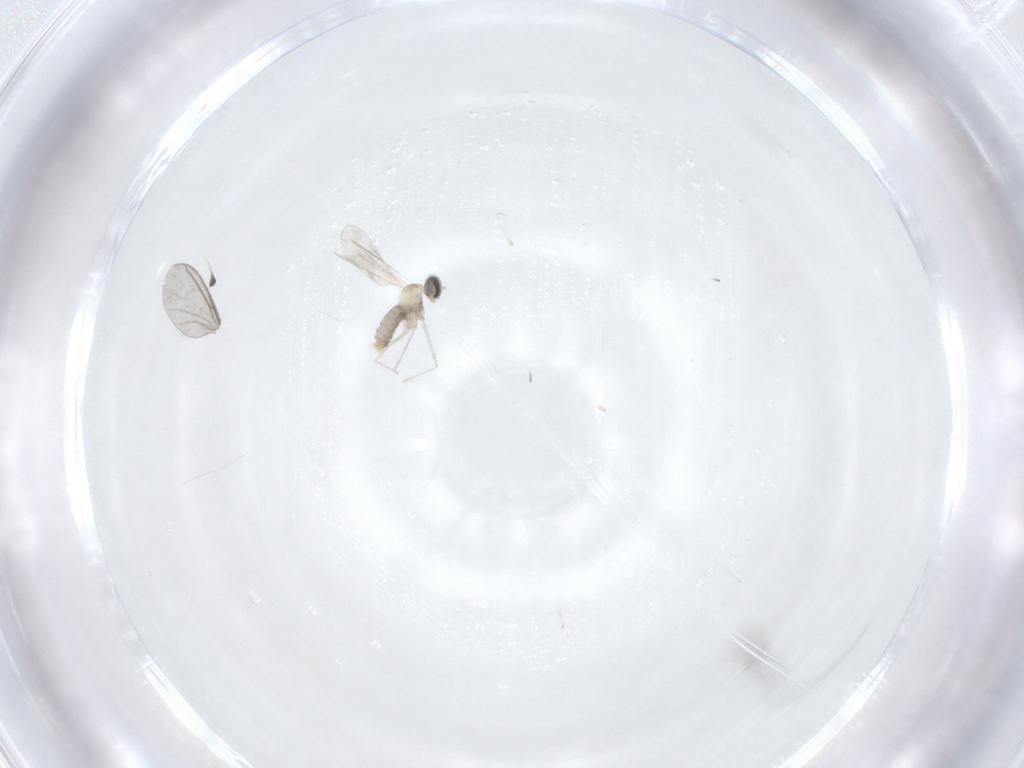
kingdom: Animalia
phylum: Arthropoda
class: Insecta
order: Diptera
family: Sciaridae
